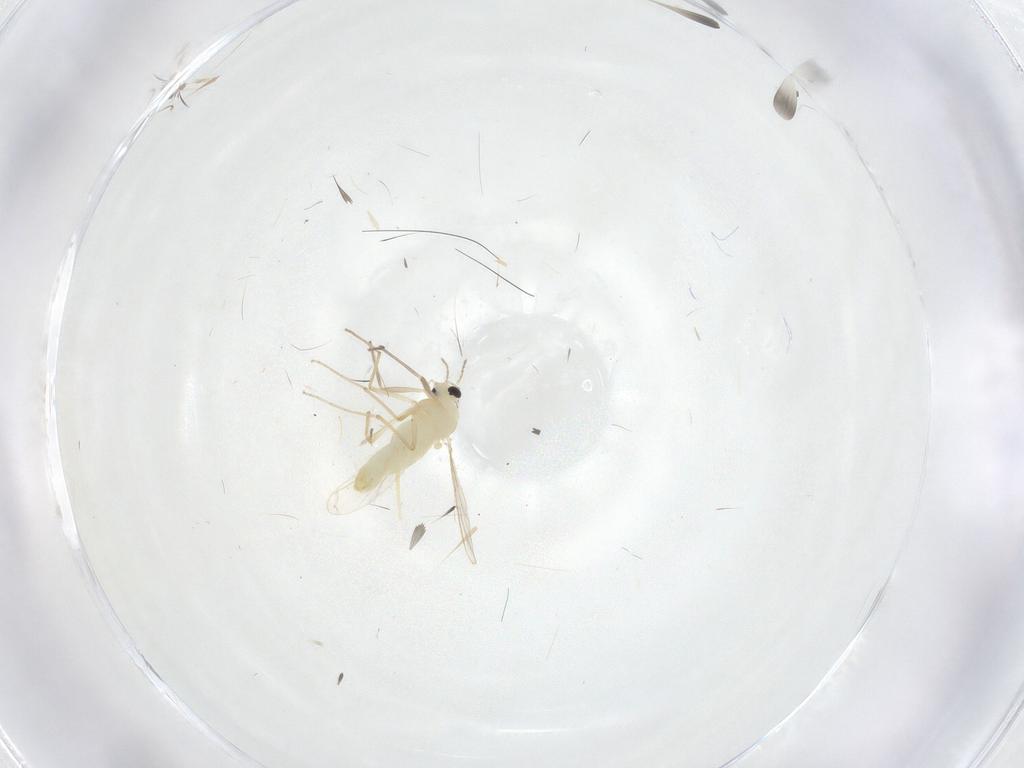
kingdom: Animalia
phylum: Arthropoda
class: Insecta
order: Diptera
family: Chironomidae
